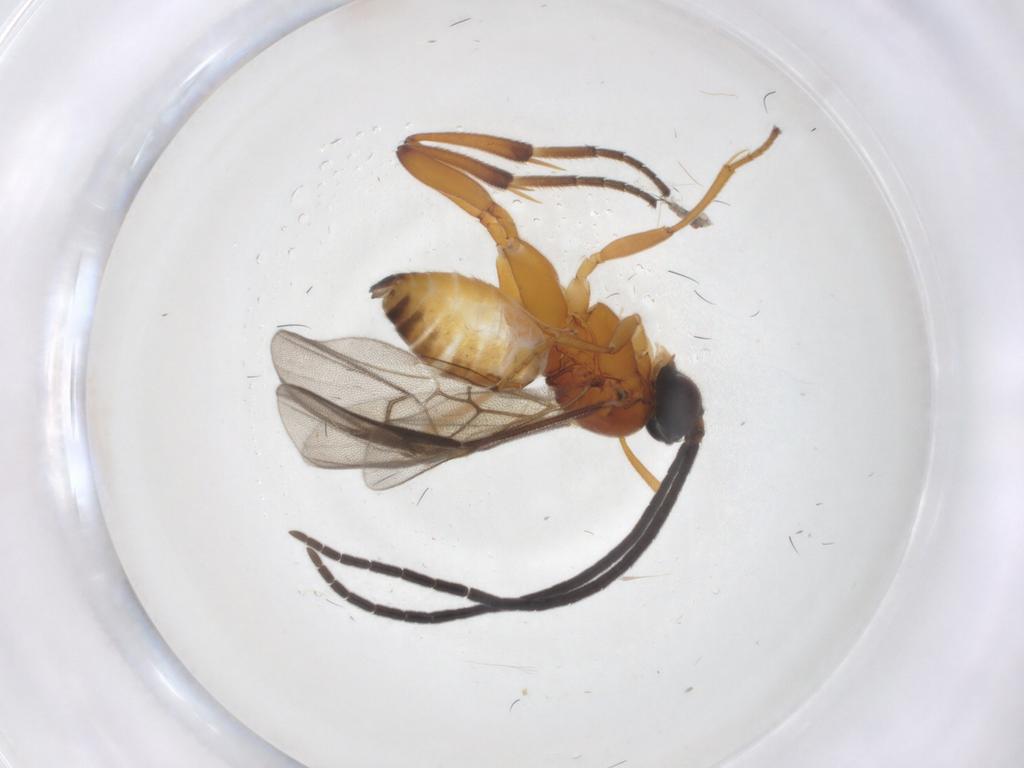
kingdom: Animalia
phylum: Arthropoda
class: Insecta
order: Hymenoptera
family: Braconidae
